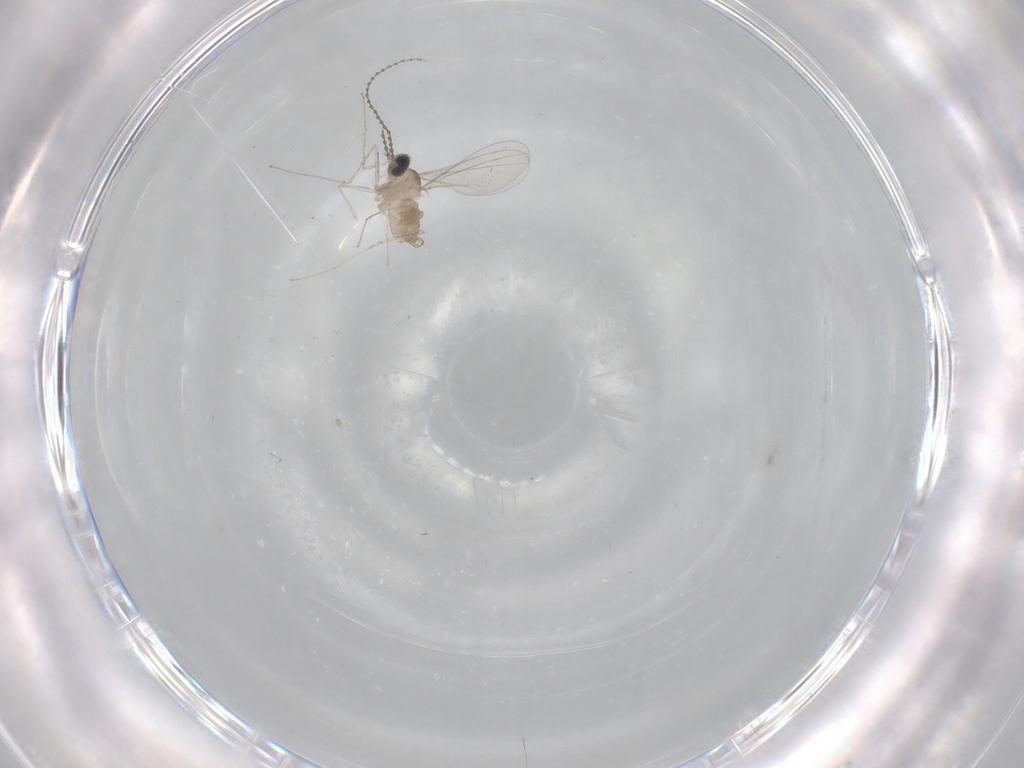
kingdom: Animalia
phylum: Arthropoda
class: Insecta
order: Diptera
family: Cecidomyiidae
